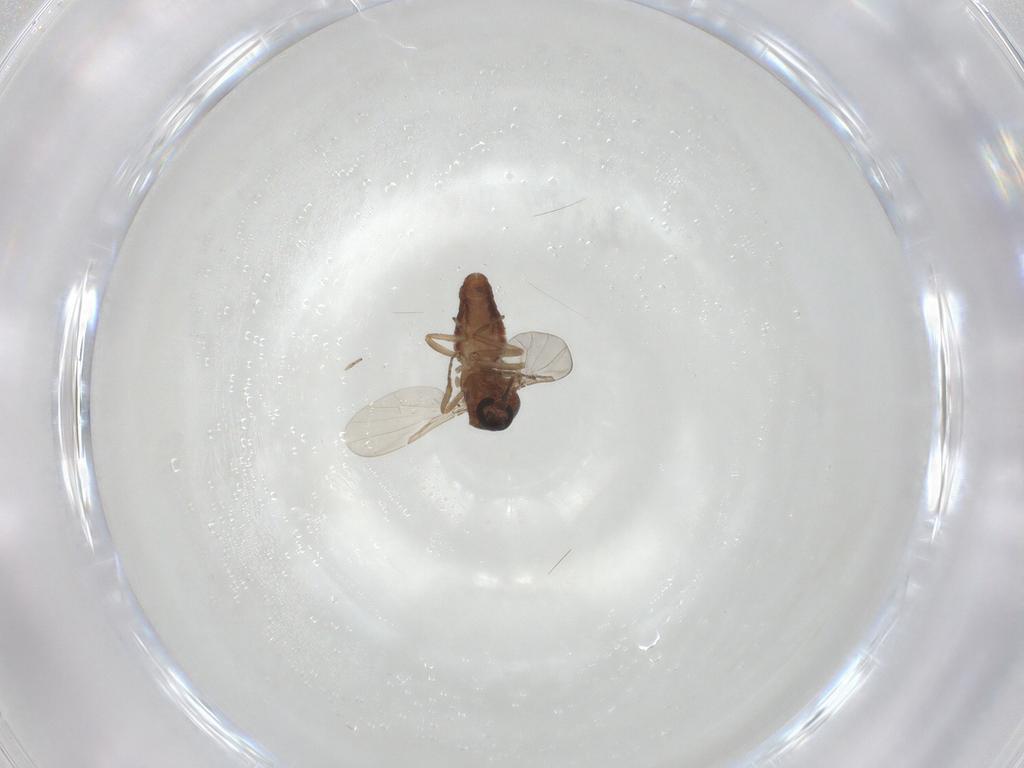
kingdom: Animalia
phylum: Arthropoda
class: Insecta
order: Diptera
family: Ceratopogonidae
